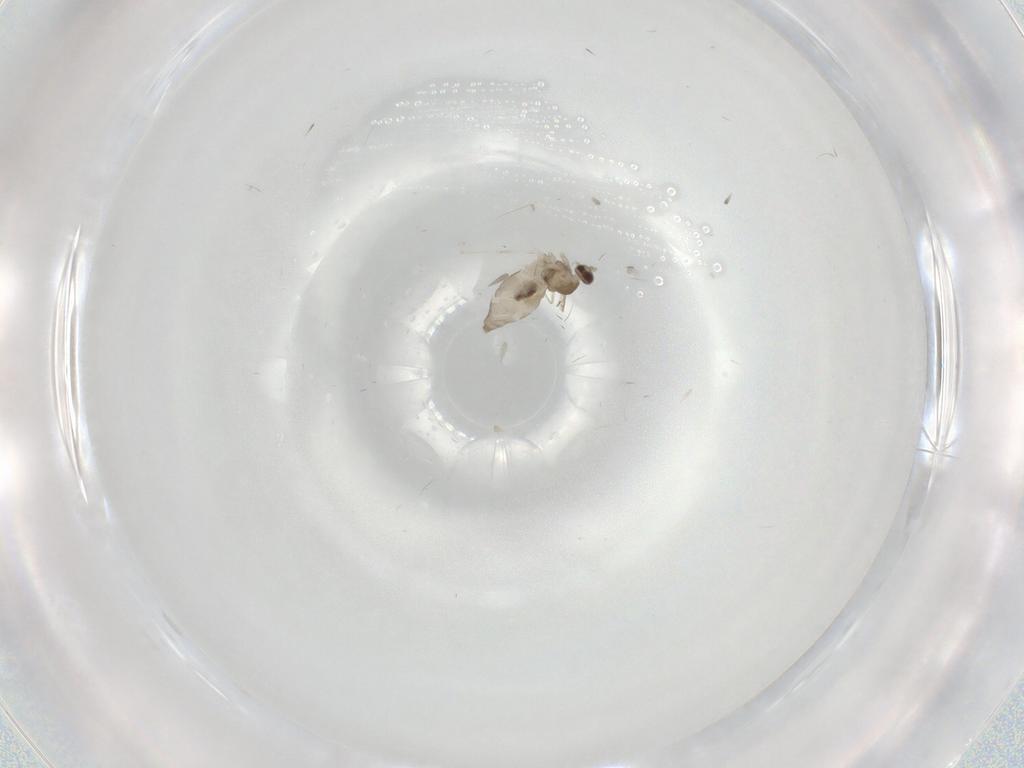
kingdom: Animalia
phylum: Arthropoda
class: Insecta
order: Diptera
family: Cecidomyiidae
